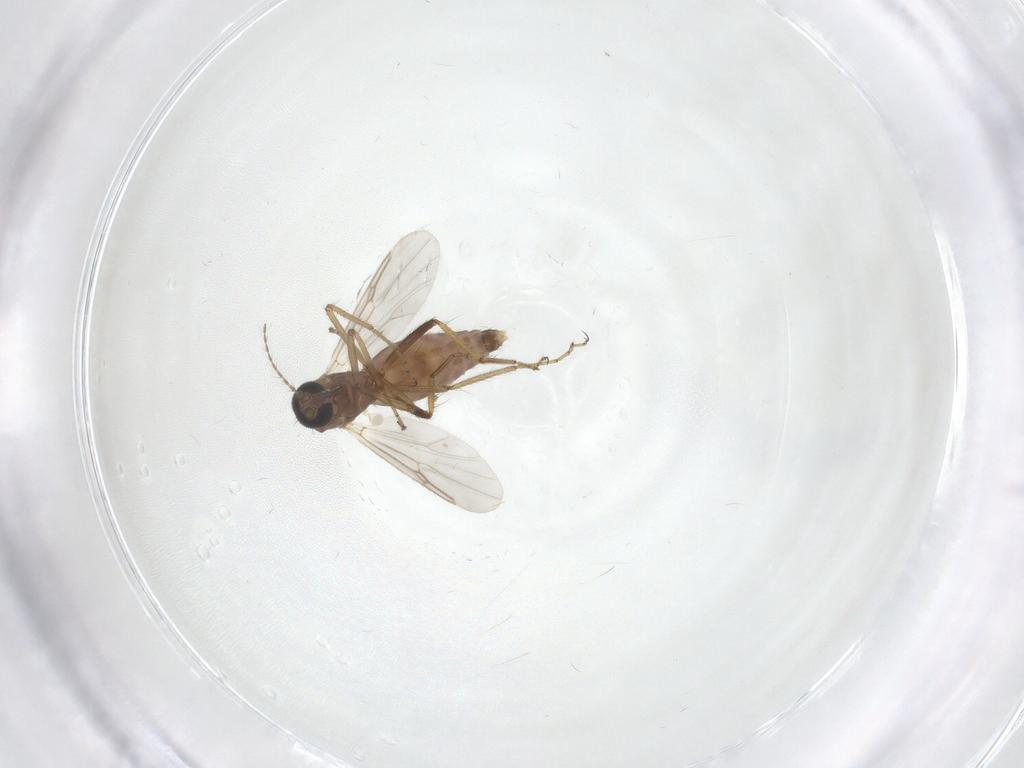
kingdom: Animalia
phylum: Arthropoda
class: Insecta
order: Diptera
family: Ceratopogonidae
